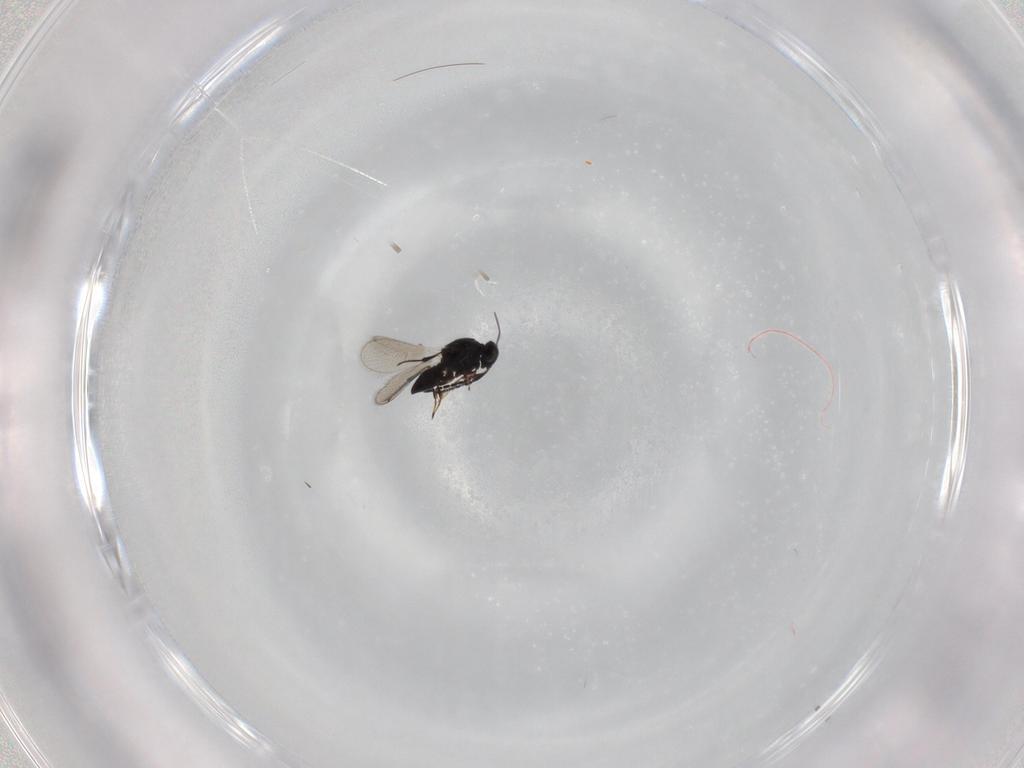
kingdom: Animalia
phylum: Arthropoda
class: Insecta
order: Hymenoptera
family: Platygastridae
